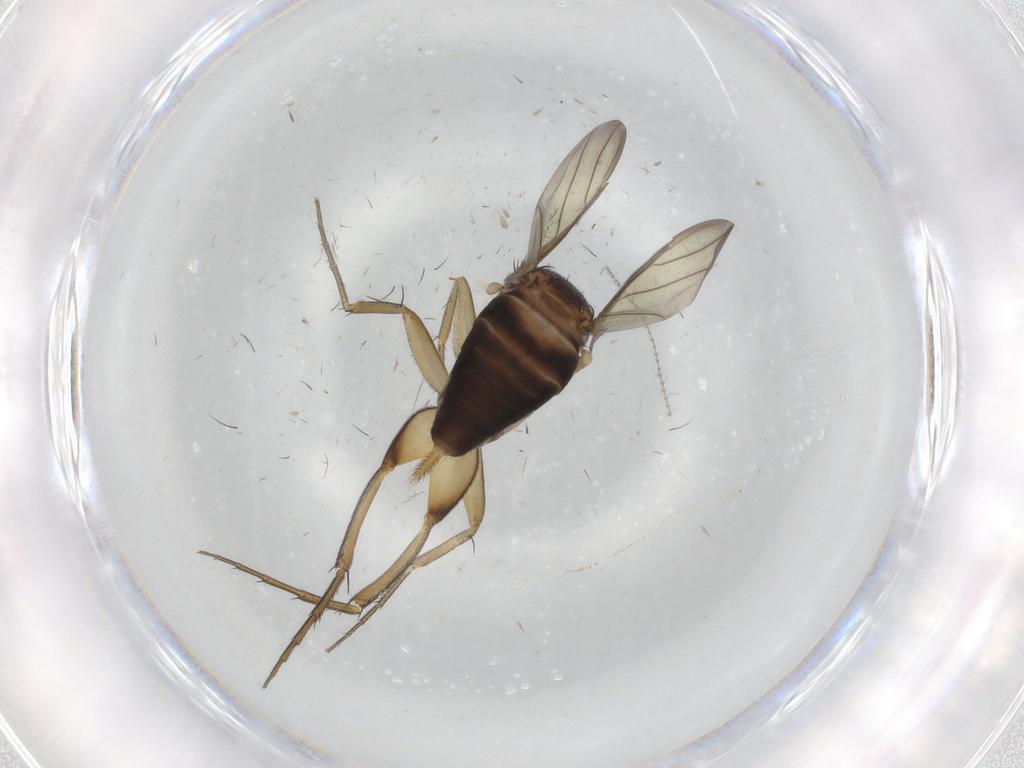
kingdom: Animalia
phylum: Arthropoda
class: Insecta
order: Diptera
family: Phoridae
